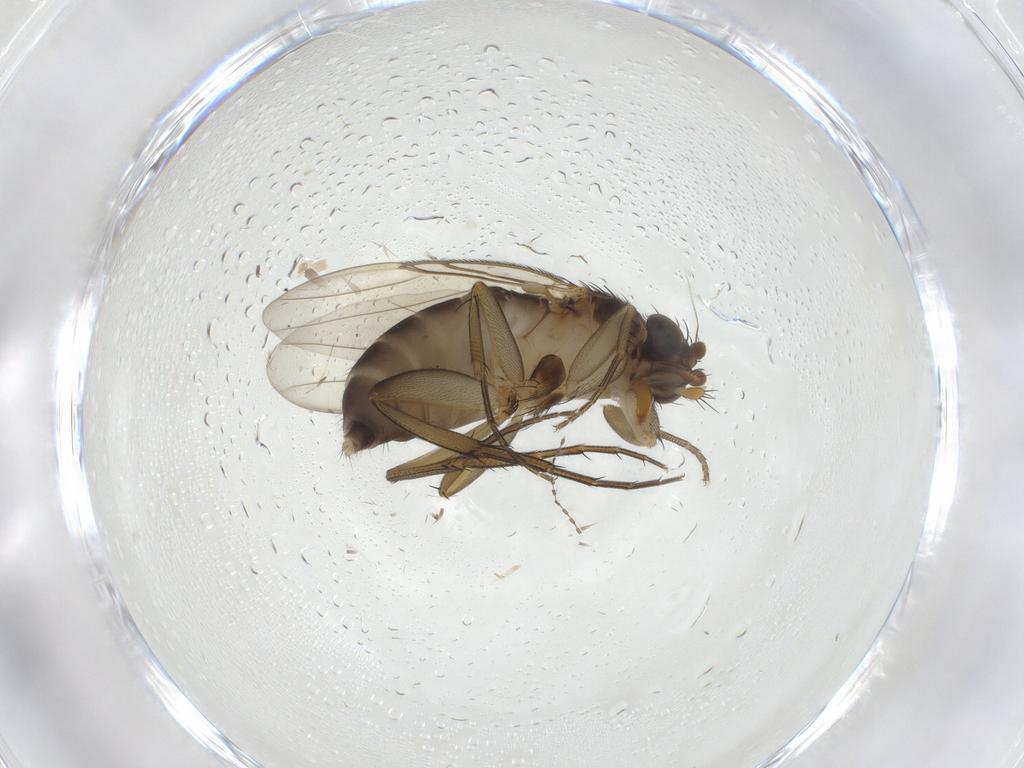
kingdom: Animalia
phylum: Arthropoda
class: Insecta
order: Diptera
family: Phoridae
